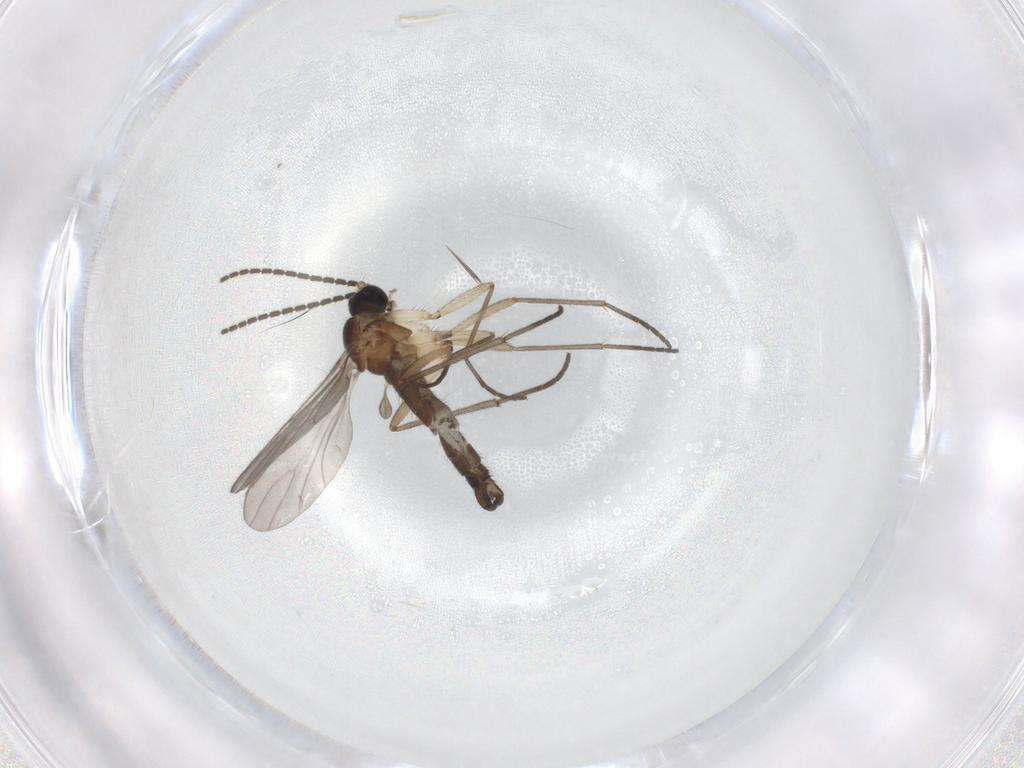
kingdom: Animalia
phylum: Arthropoda
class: Insecta
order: Diptera
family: Sciaridae
